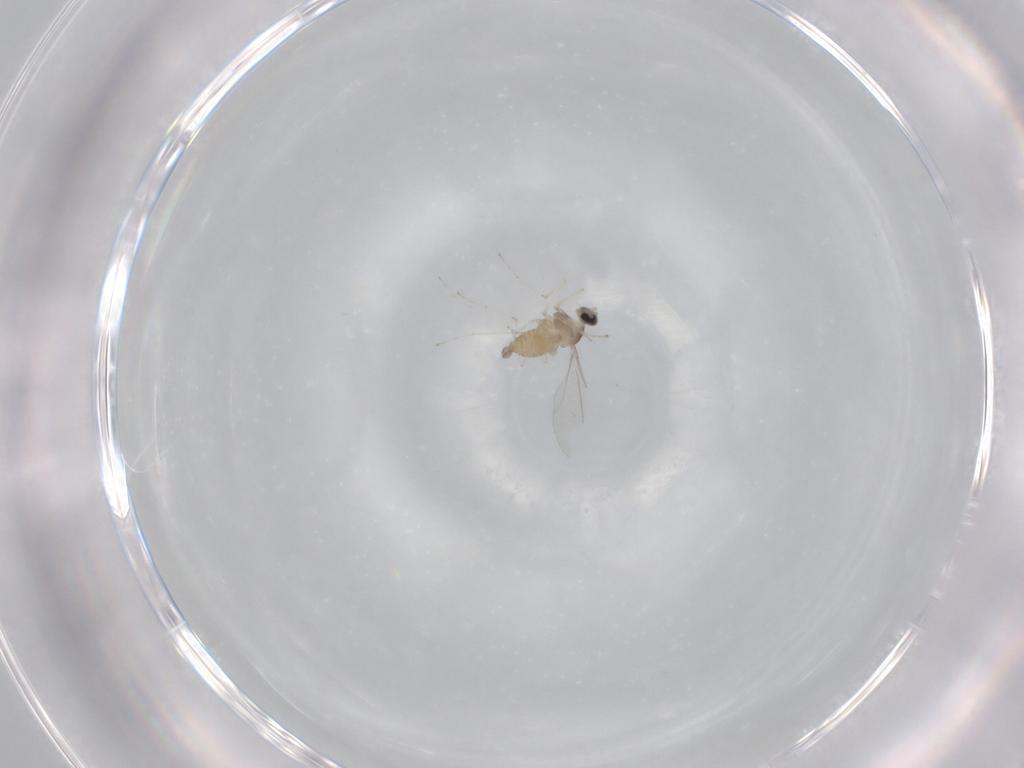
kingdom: Animalia
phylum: Arthropoda
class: Insecta
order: Diptera
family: Cecidomyiidae
